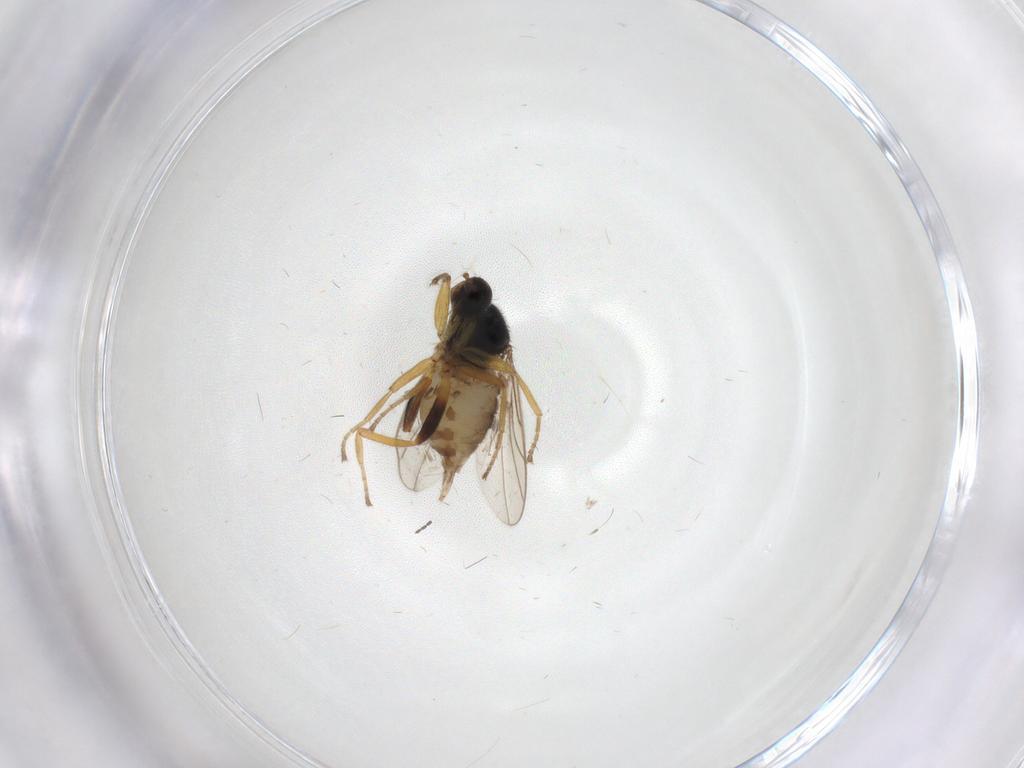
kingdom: Animalia
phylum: Arthropoda
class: Insecta
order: Diptera
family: Hybotidae
